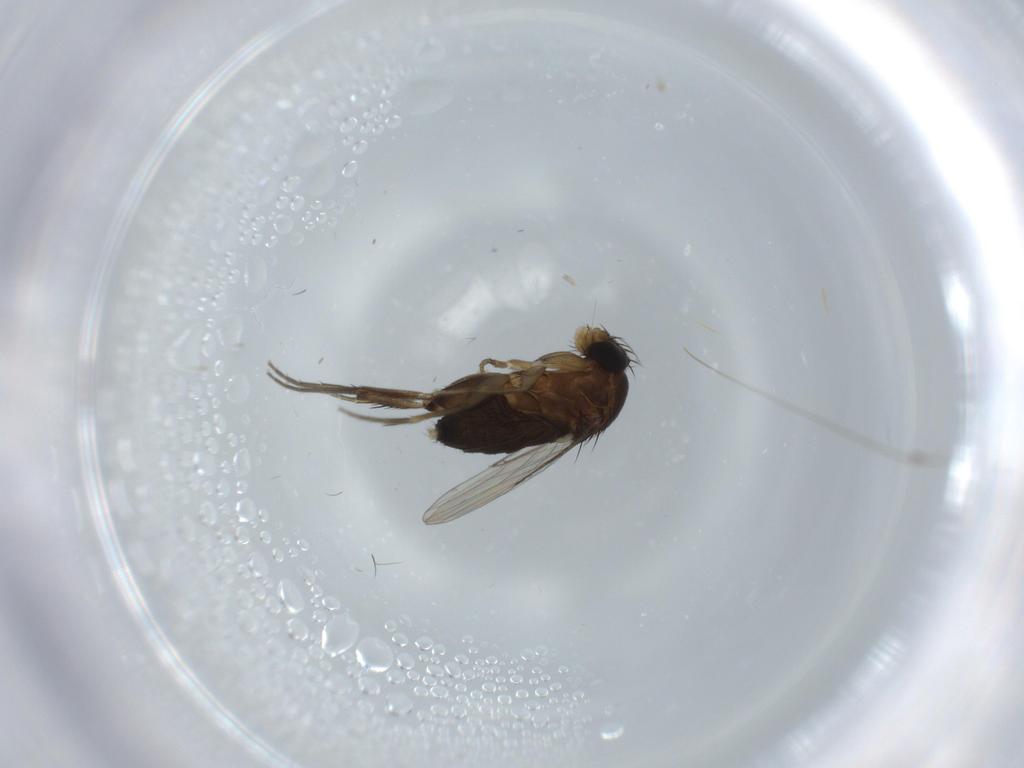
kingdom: Animalia
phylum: Arthropoda
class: Insecta
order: Diptera
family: Phoridae
